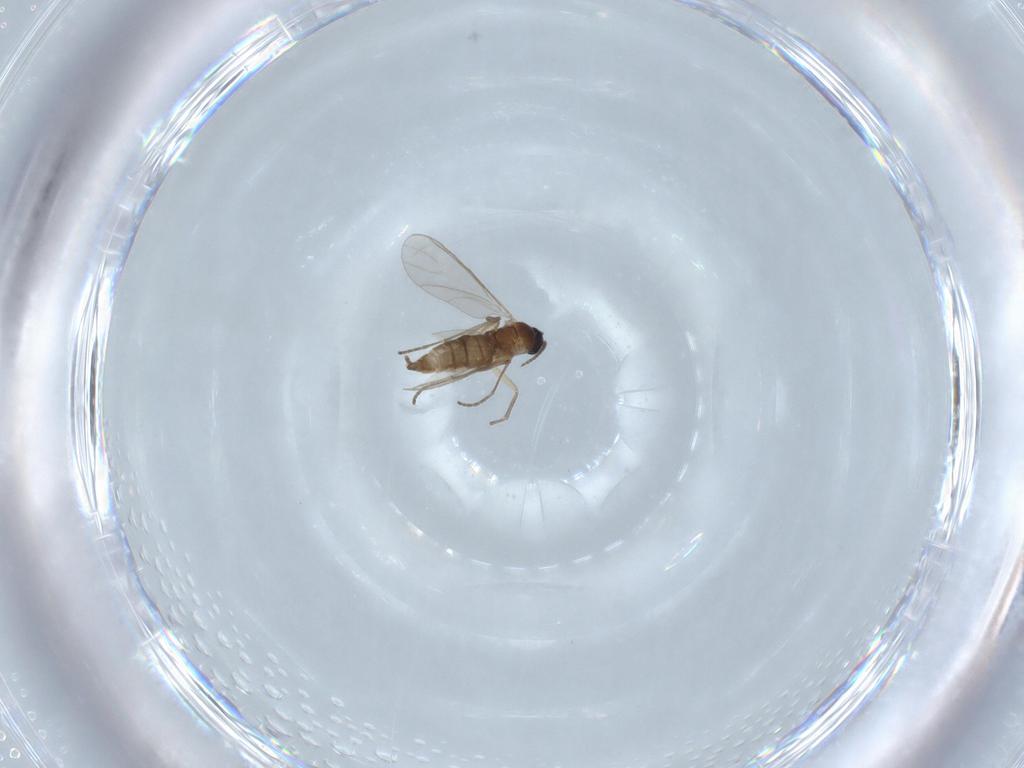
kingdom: Animalia
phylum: Arthropoda
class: Insecta
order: Diptera
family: Sciaridae
